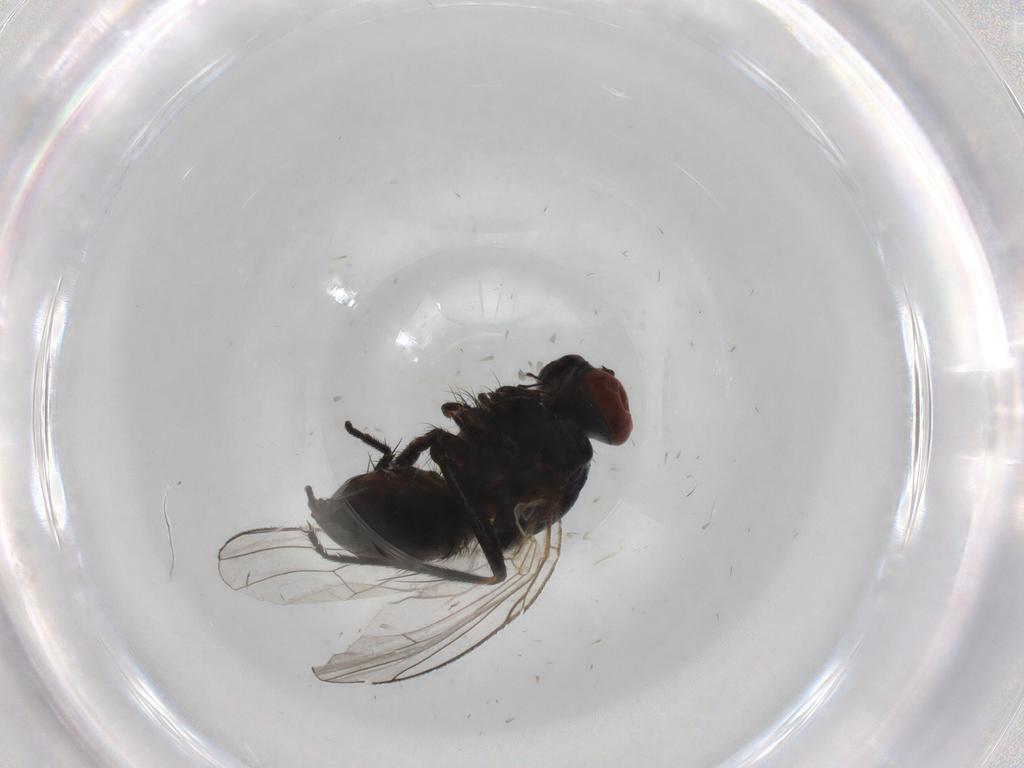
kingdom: Animalia
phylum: Arthropoda
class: Insecta
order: Diptera
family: Muscidae
